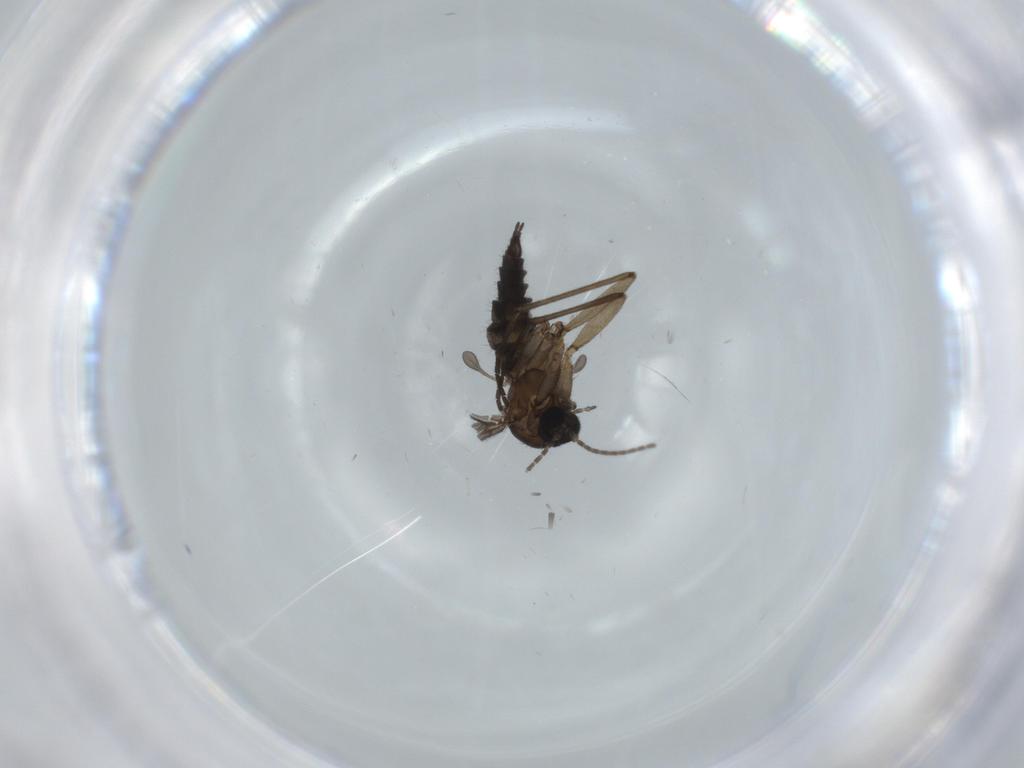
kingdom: Animalia
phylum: Arthropoda
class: Insecta
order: Diptera
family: Sciaridae
